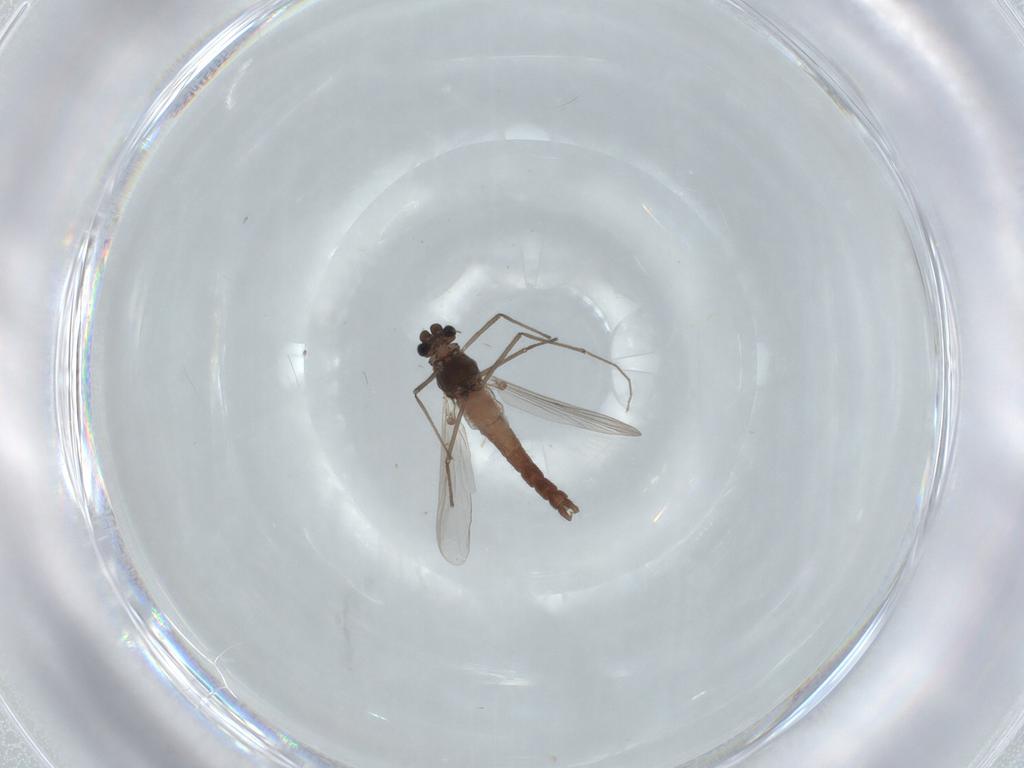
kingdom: Animalia
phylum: Arthropoda
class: Insecta
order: Diptera
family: Chironomidae
